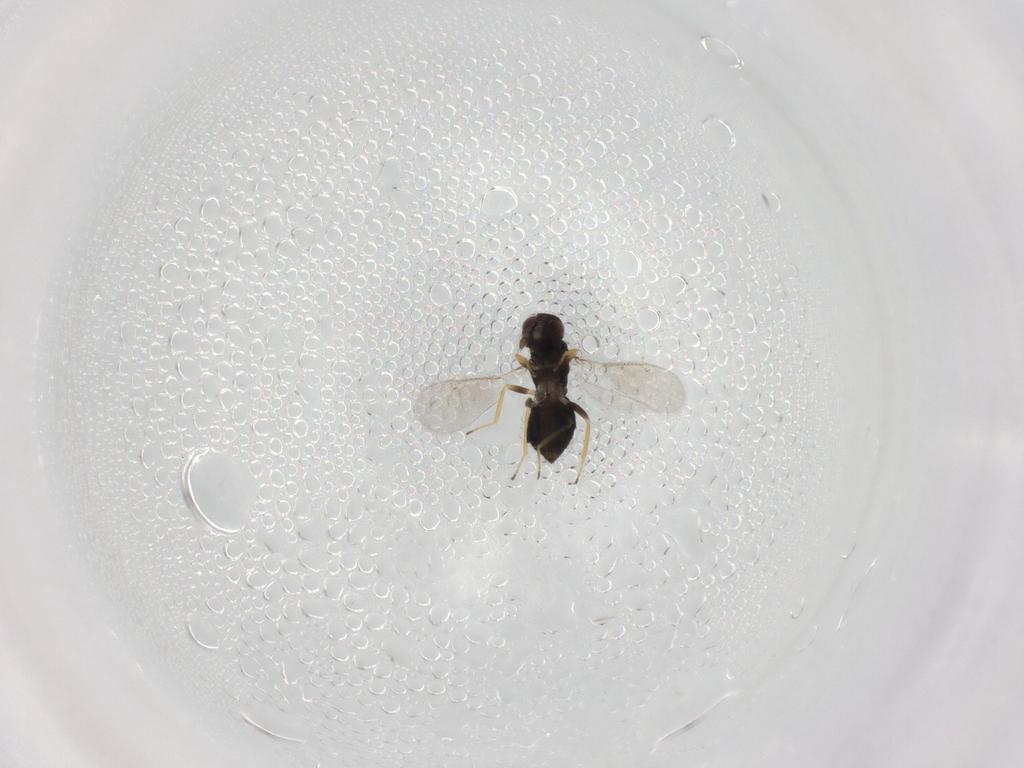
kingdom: Animalia
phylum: Arthropoda
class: Insecta
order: Hymenoptera
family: Eulophidae
